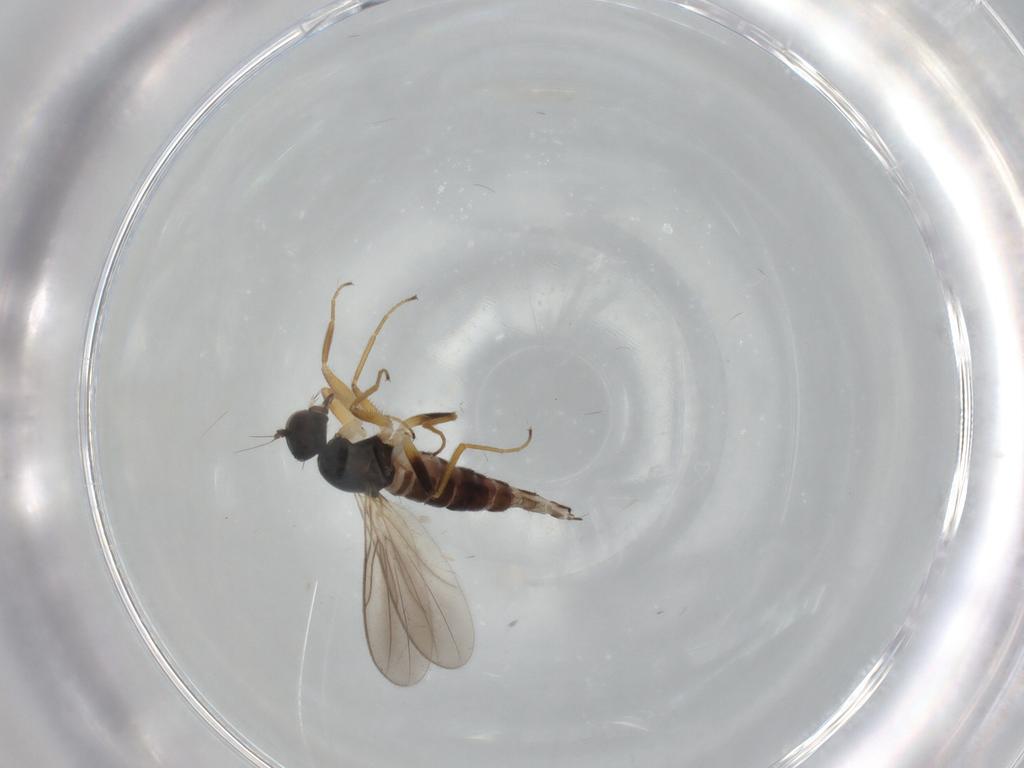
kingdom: Animalia
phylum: Arthropoda
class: Insecta
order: Diptera
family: Hybotidae
